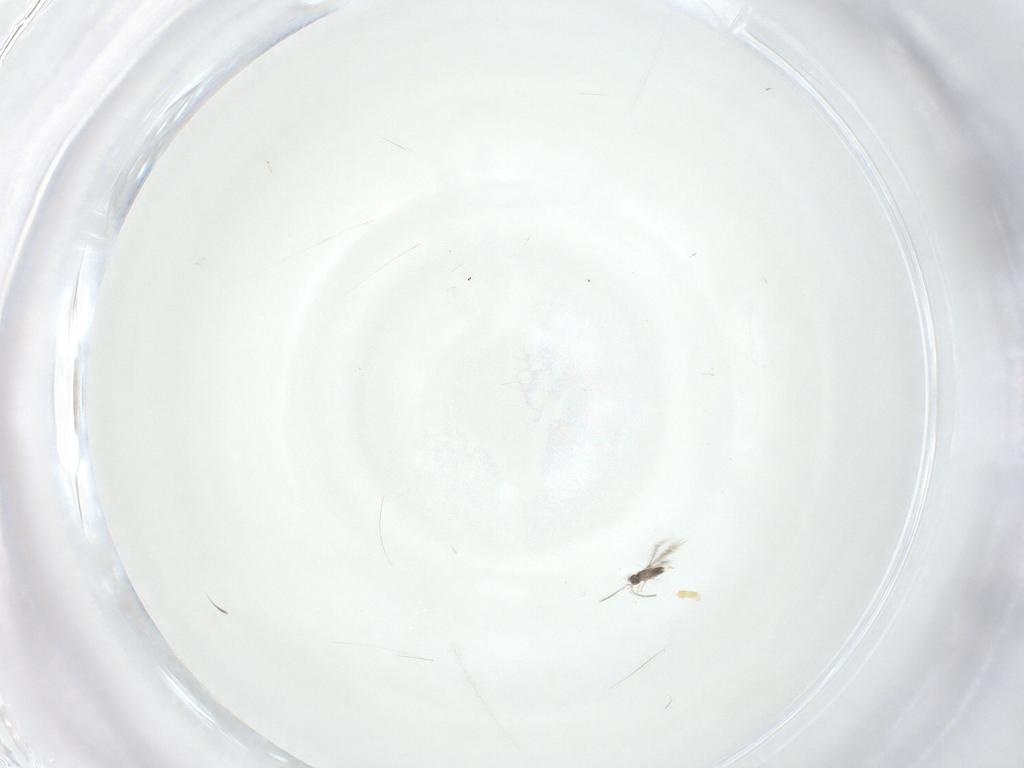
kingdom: Animalia
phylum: Arthropoda
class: Insecta
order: Hymenoptera
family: Mymaridae
